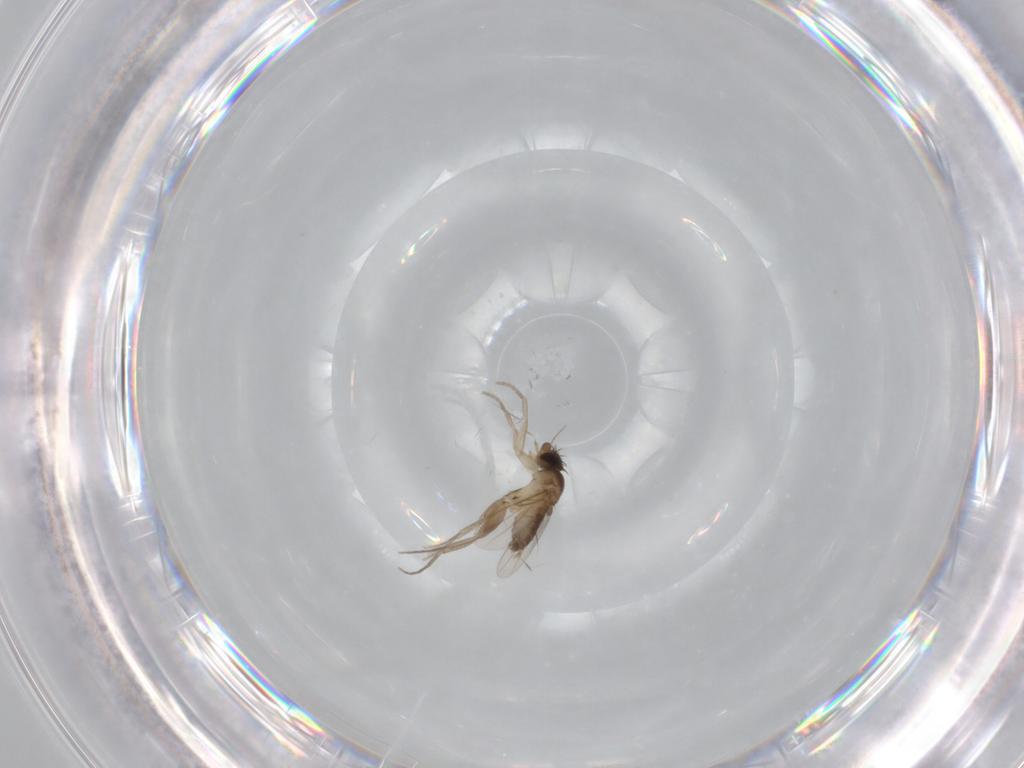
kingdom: Animalia
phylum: Arthropoda
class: Insecta
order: Diptera
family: Phoridae
